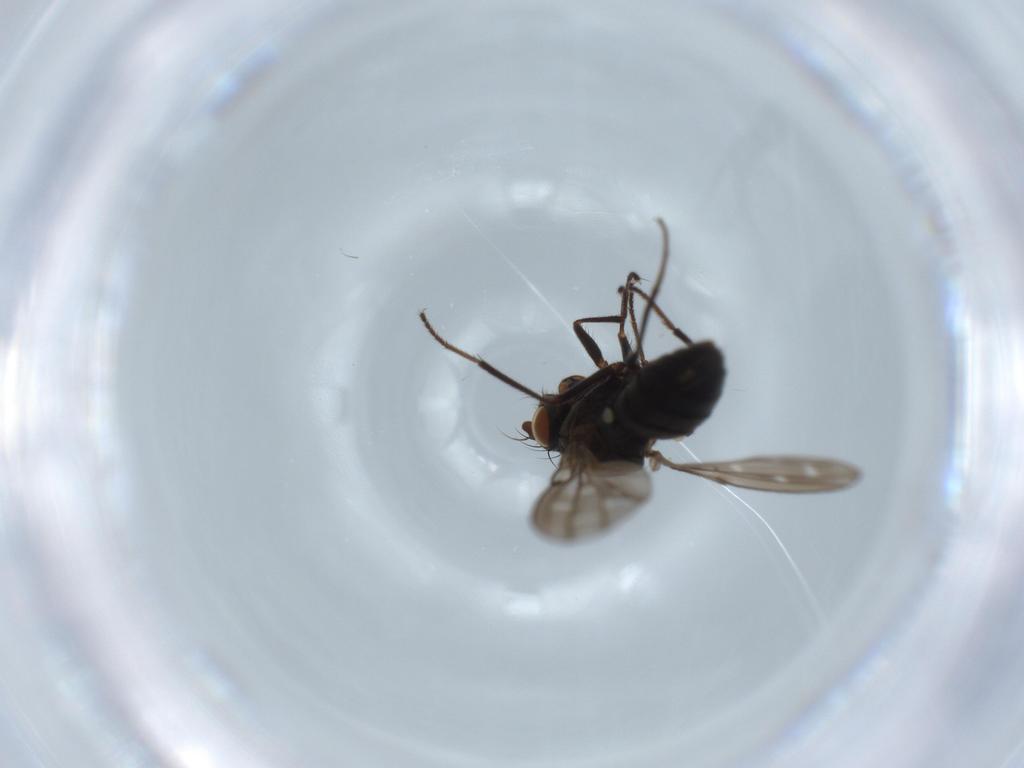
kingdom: Animalia
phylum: Arthropoda
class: Insecta
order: Diptera
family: Ephydridae
